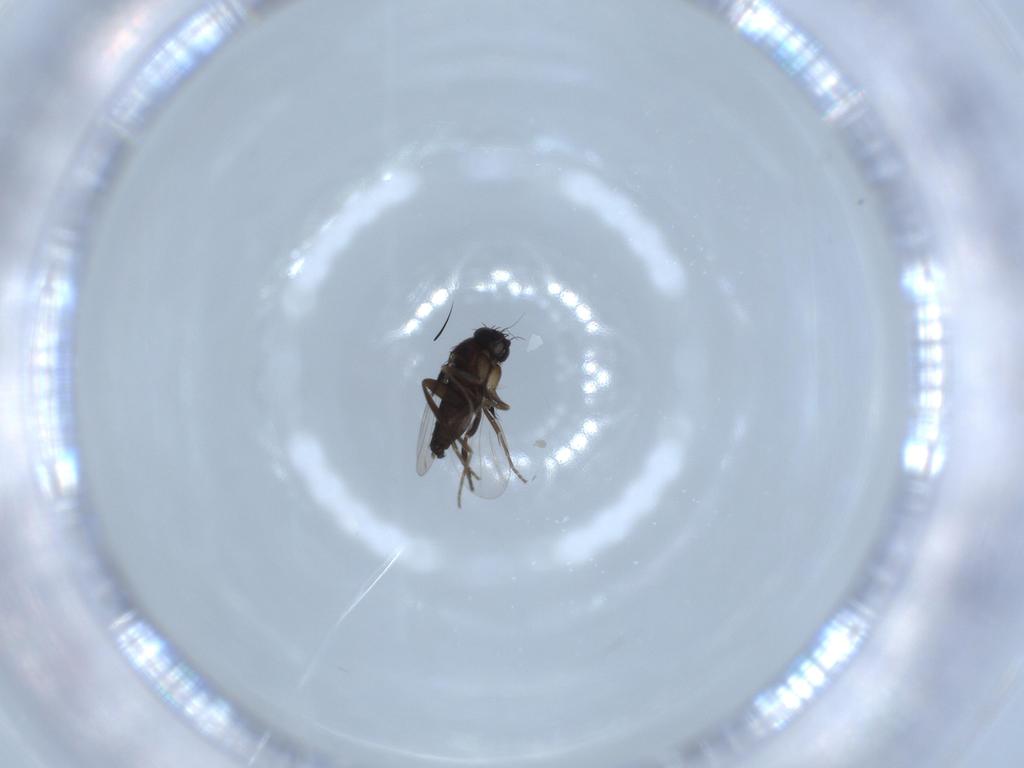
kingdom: Animalia
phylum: Arthropoda
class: Insecta
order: Diptera
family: Phoridae
